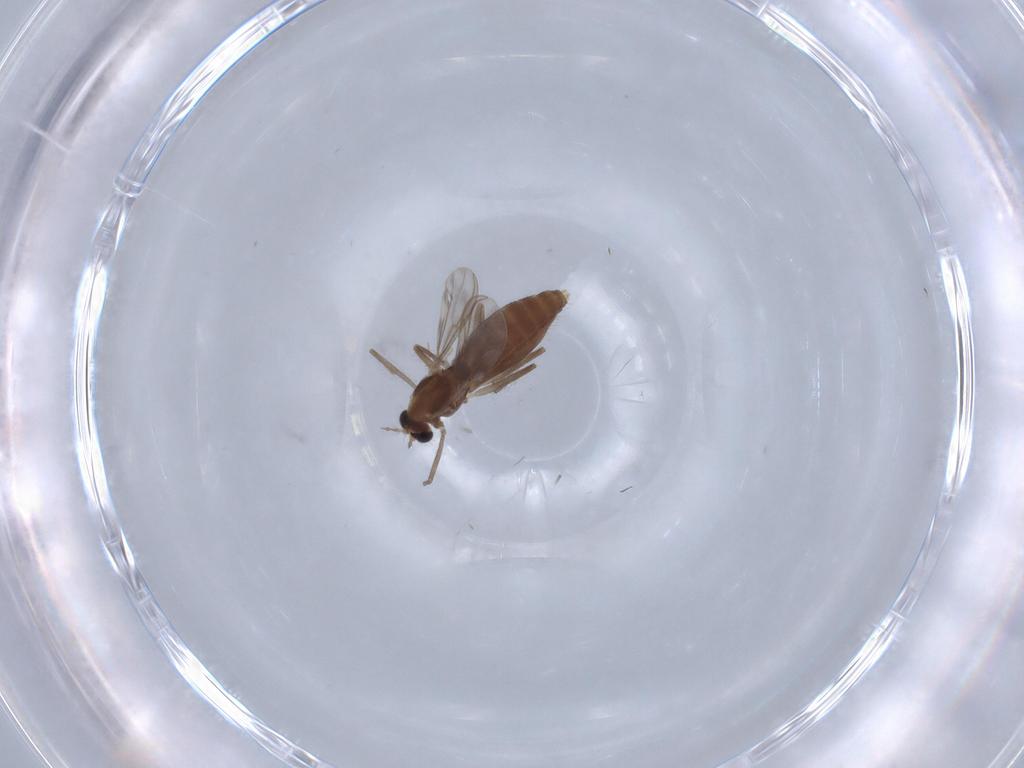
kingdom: Animalia
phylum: Arthropoda
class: Insecta
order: Diptera
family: Chironomidae
